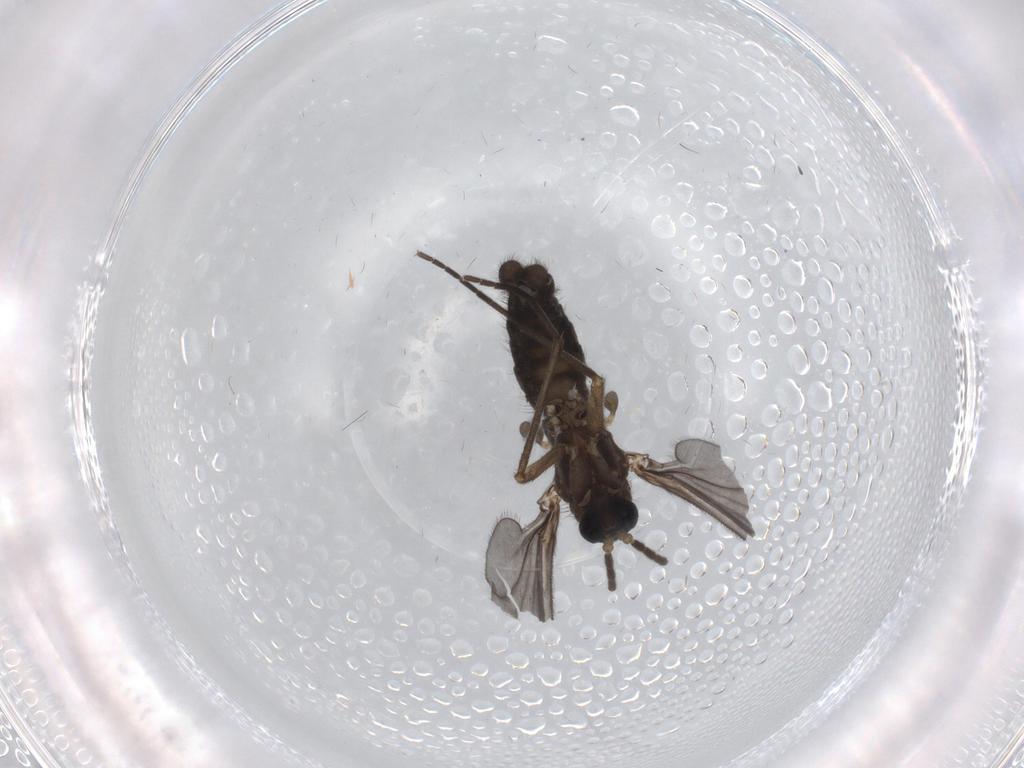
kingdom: Animalia
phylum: Arthropoda
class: Insecta
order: Diptera
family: Sciaridae
